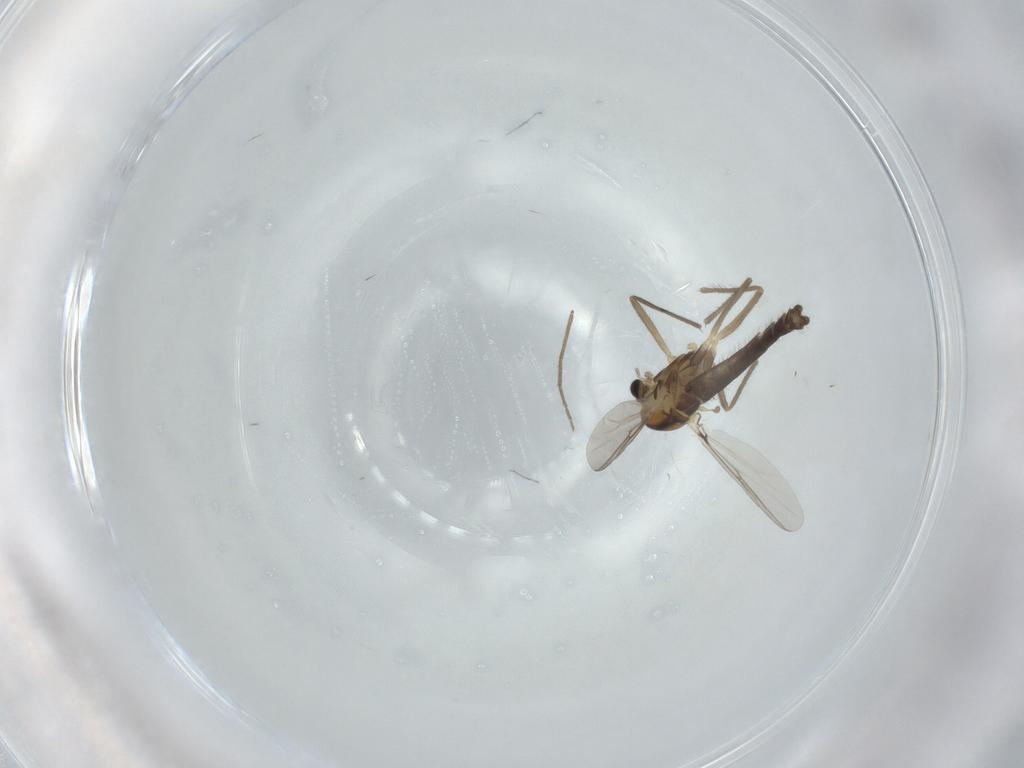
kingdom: Animalia
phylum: Arthropoda
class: Insecta
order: Diptera
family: Chironomidae
